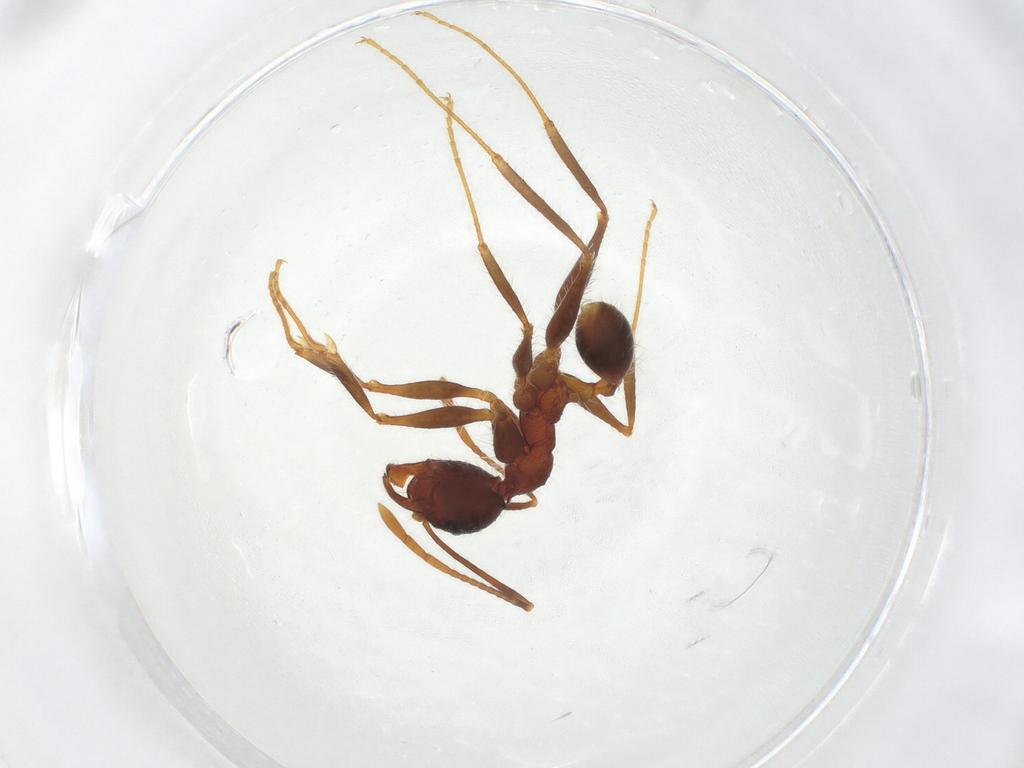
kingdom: Animalia
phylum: Arthropoda
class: Insecta
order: Hymenoptera
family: Formicidae
